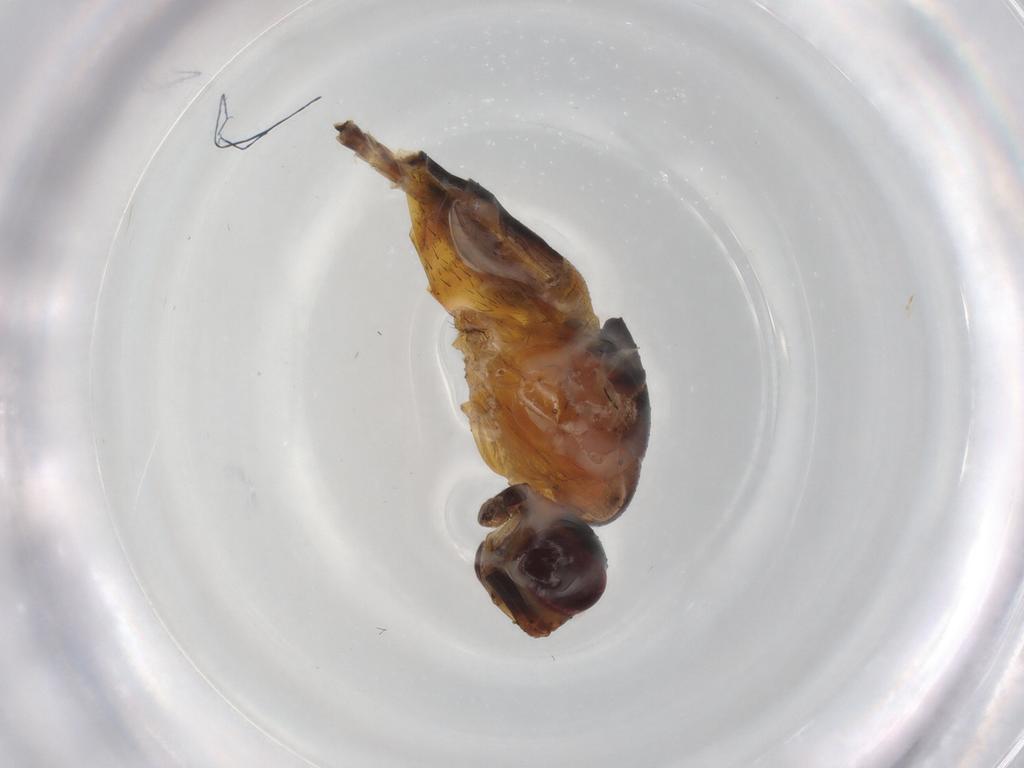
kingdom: Animalia
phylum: Arthropoda
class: Insecta
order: Diptera
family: Muscidae
